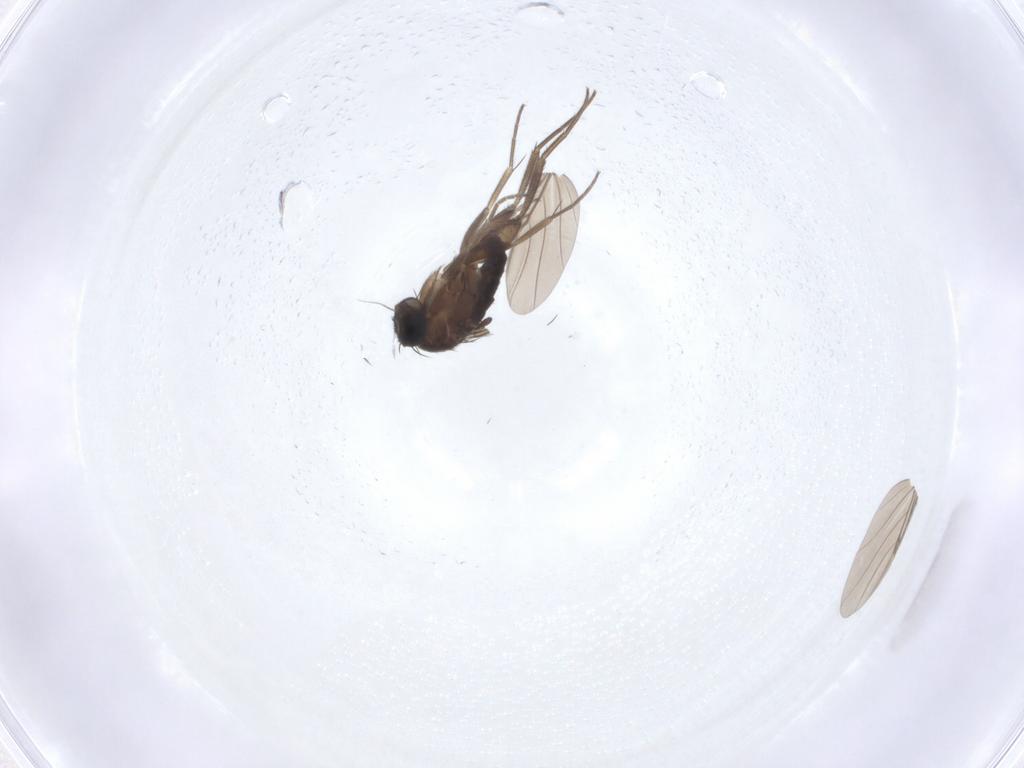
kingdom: Animalia
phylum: Arthropoda
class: Insecta
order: Diptera
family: Phoridae
